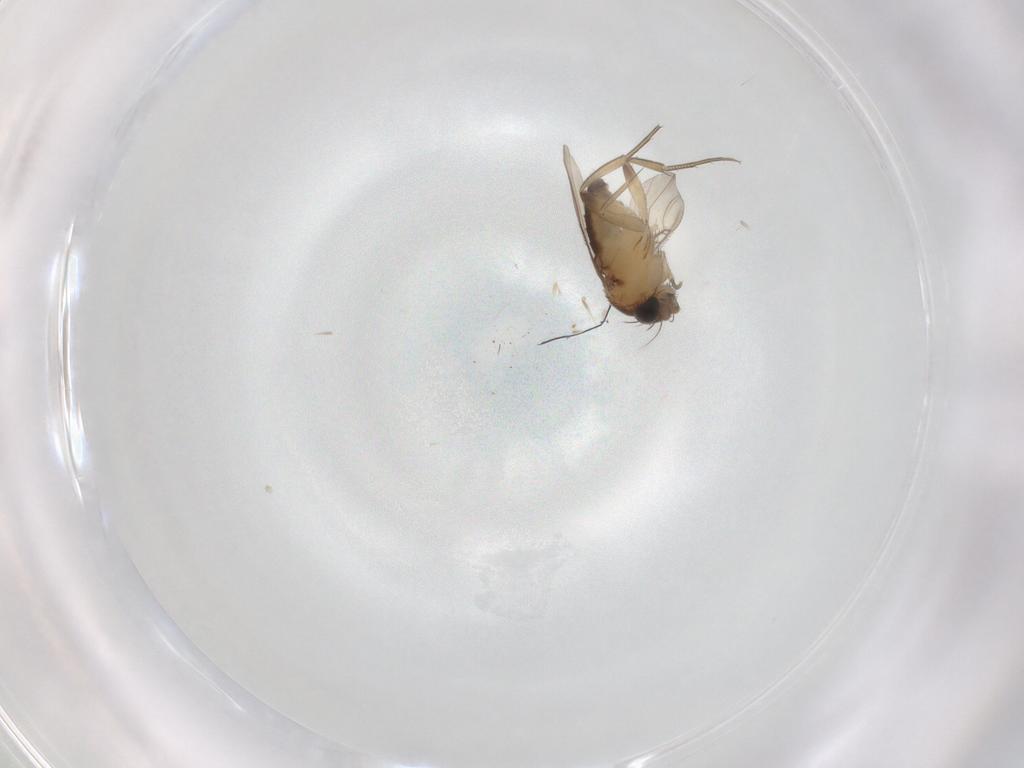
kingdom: Animalia
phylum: Arthropoda
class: Insecta
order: Diptera
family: Phoridae
